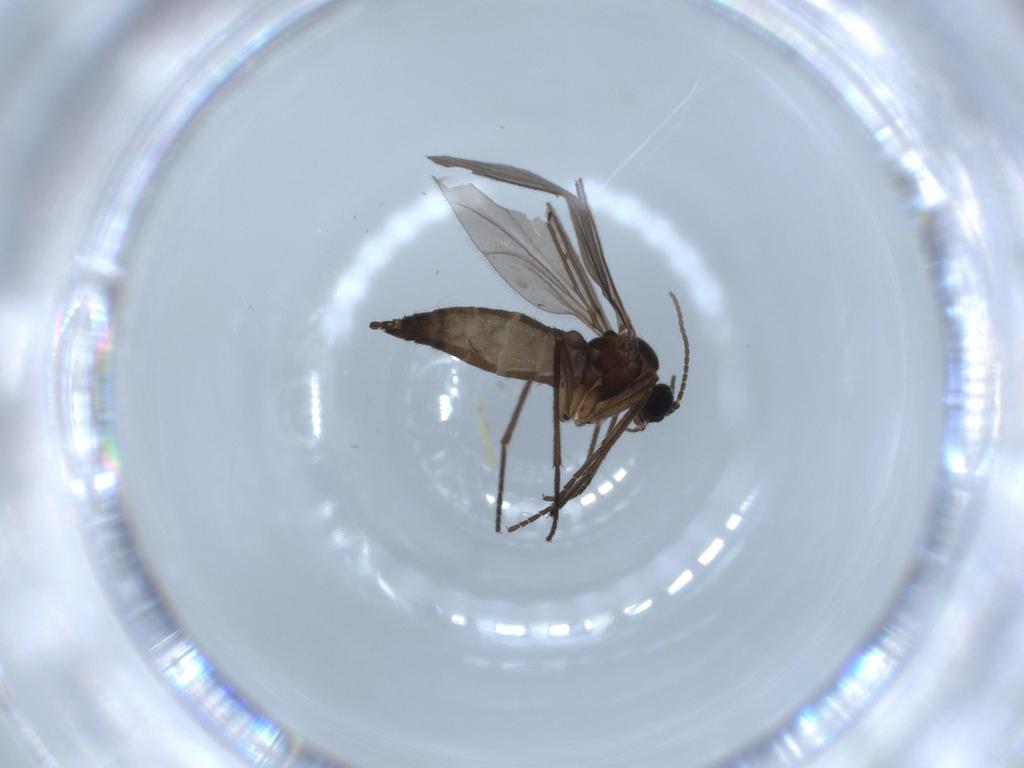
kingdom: Animalia
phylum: Arthropoda
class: Insecta
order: Diptera
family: Sciaridae
